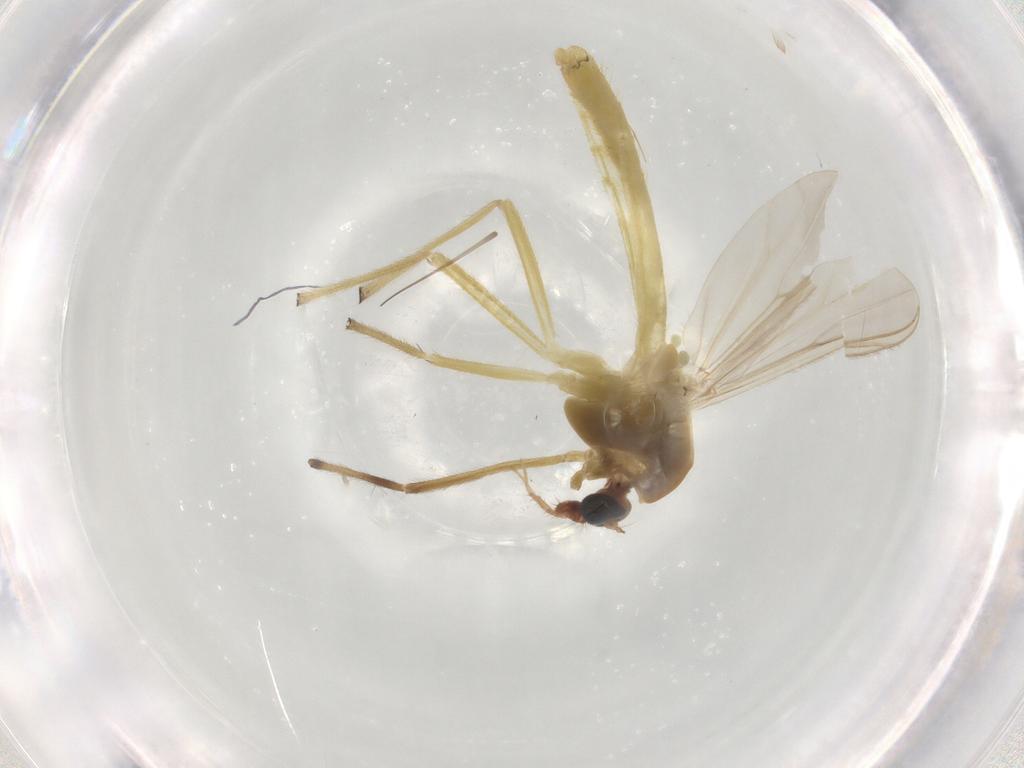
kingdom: Animalia
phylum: Arthropoda
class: Insecta
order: Diptera
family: Chironomidae
